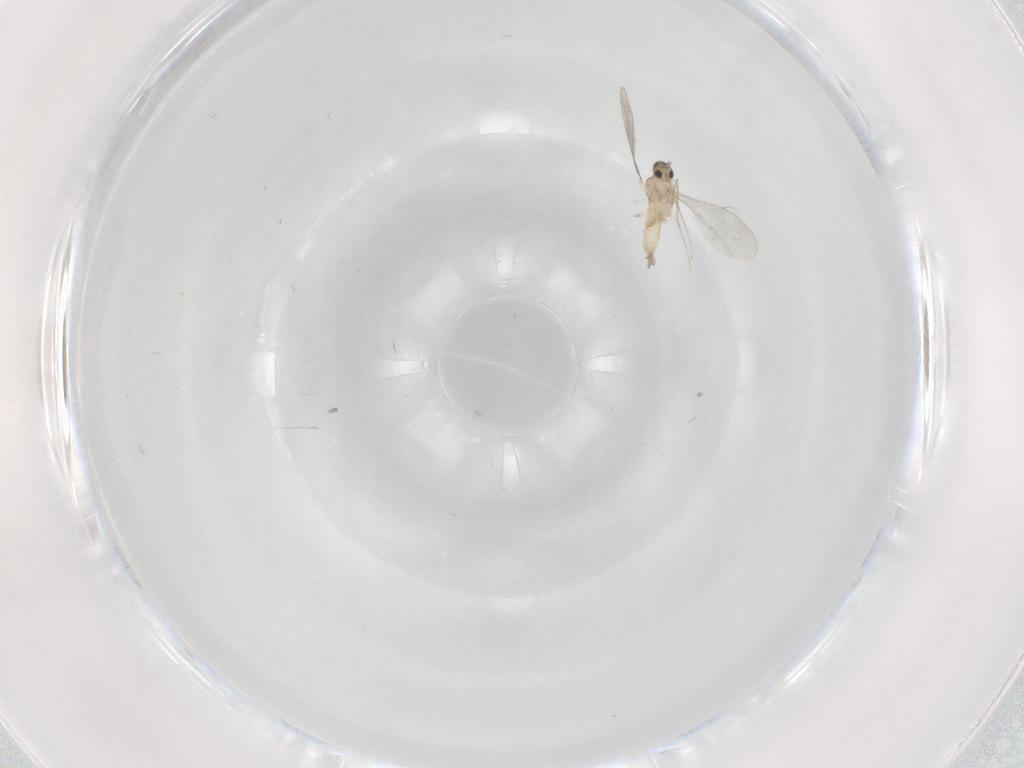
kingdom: Animalia
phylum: Arthropoda
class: Insecta
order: Diptera
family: Cecidomyiidae
